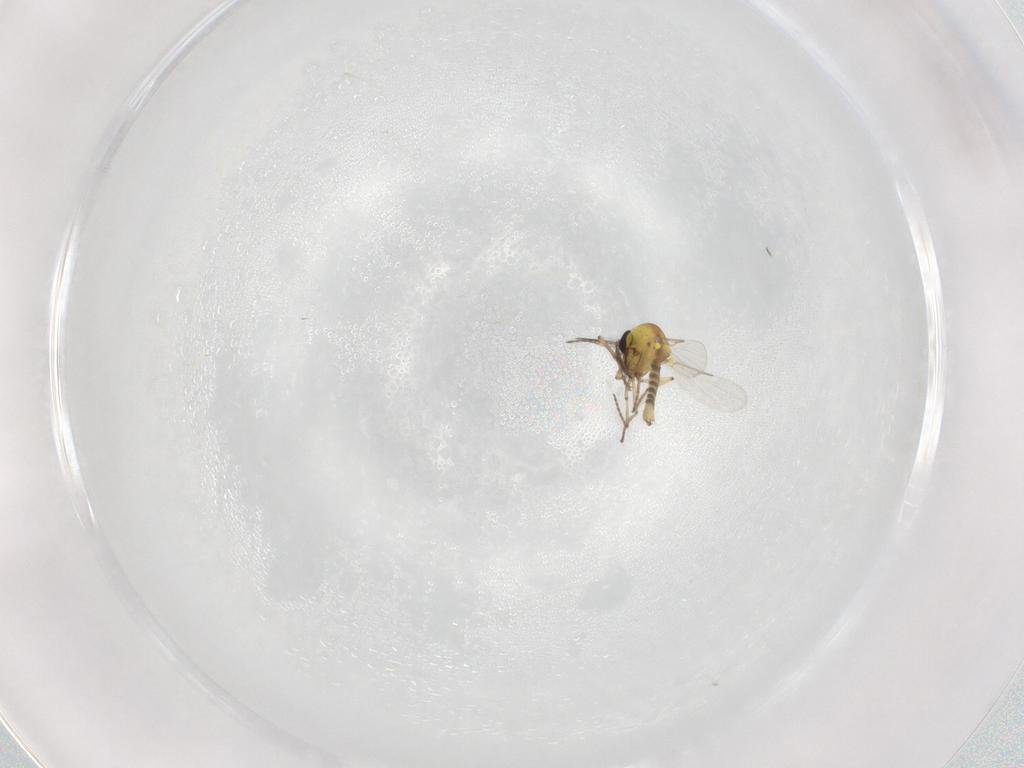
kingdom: Animalia
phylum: Arthropoda
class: Insecta
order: Diptera
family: Ceratopogonidae
